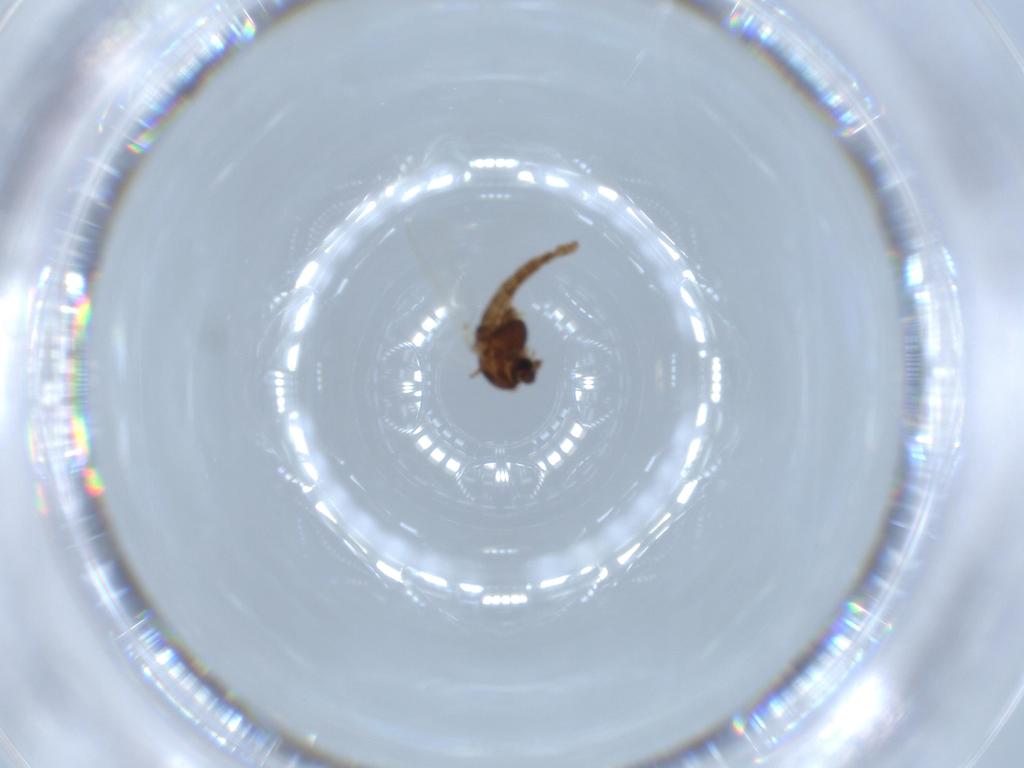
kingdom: Animalia
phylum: Arthropoda
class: Insecta
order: Diptera
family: Chironomidae
